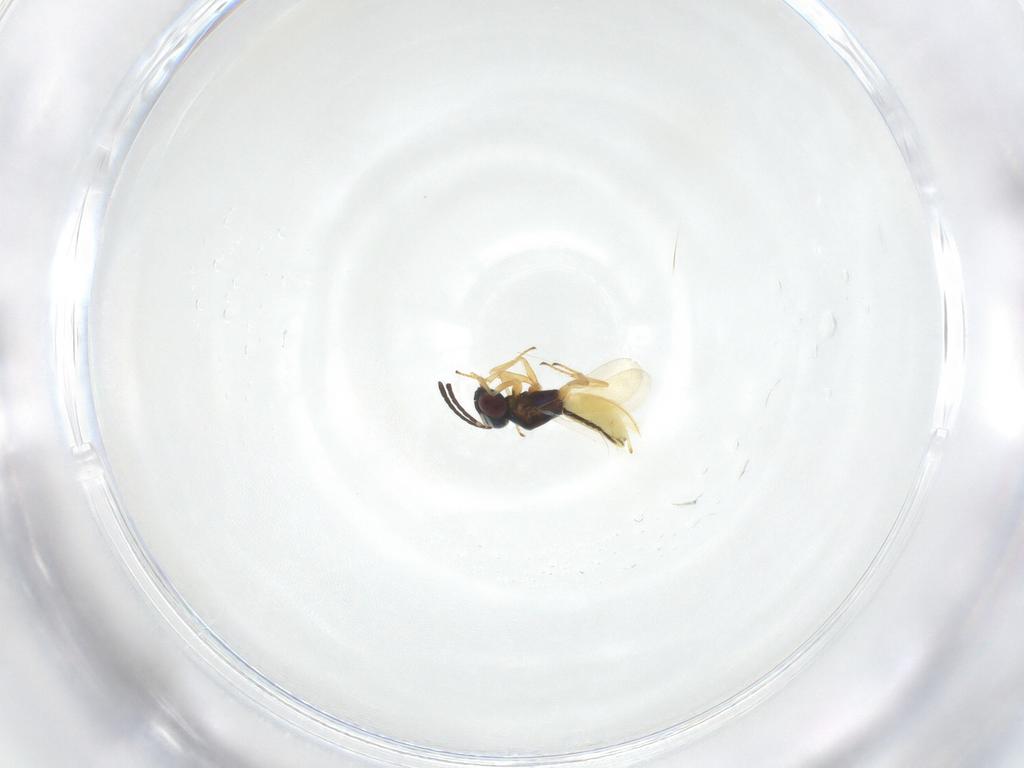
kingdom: Animalia
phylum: Arthropoda
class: Insecta
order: Hymenoptera
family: Encyrtidae
